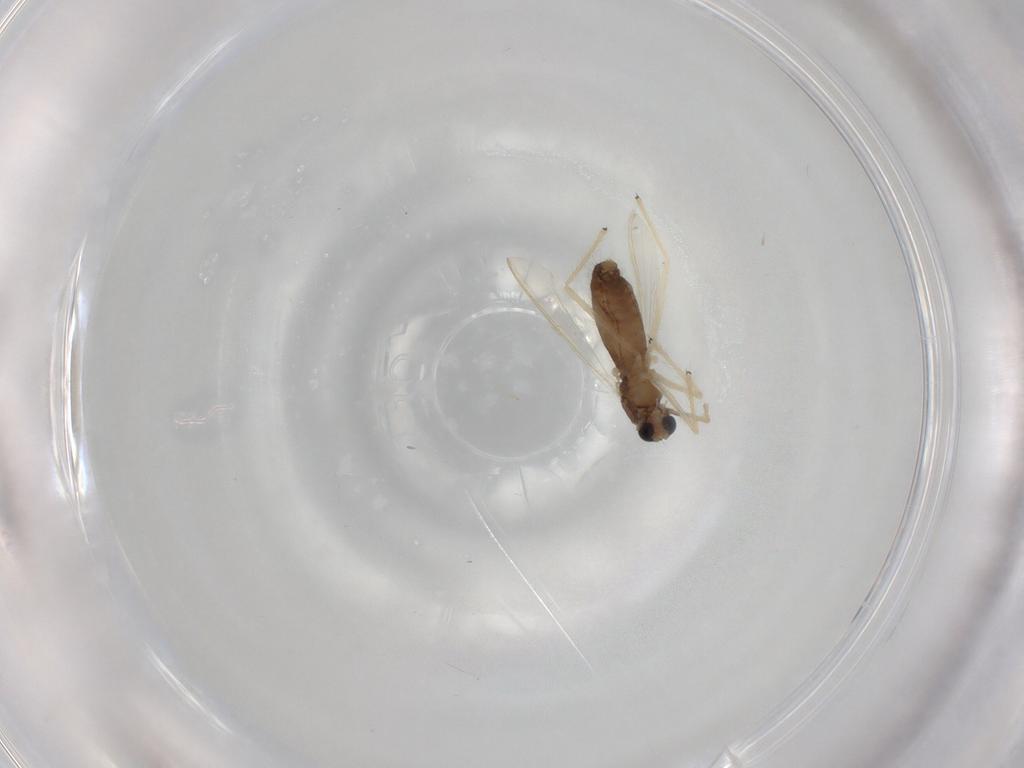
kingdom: Animalia
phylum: Arthropoda
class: Insecta
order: Diptera
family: Chironomidae
